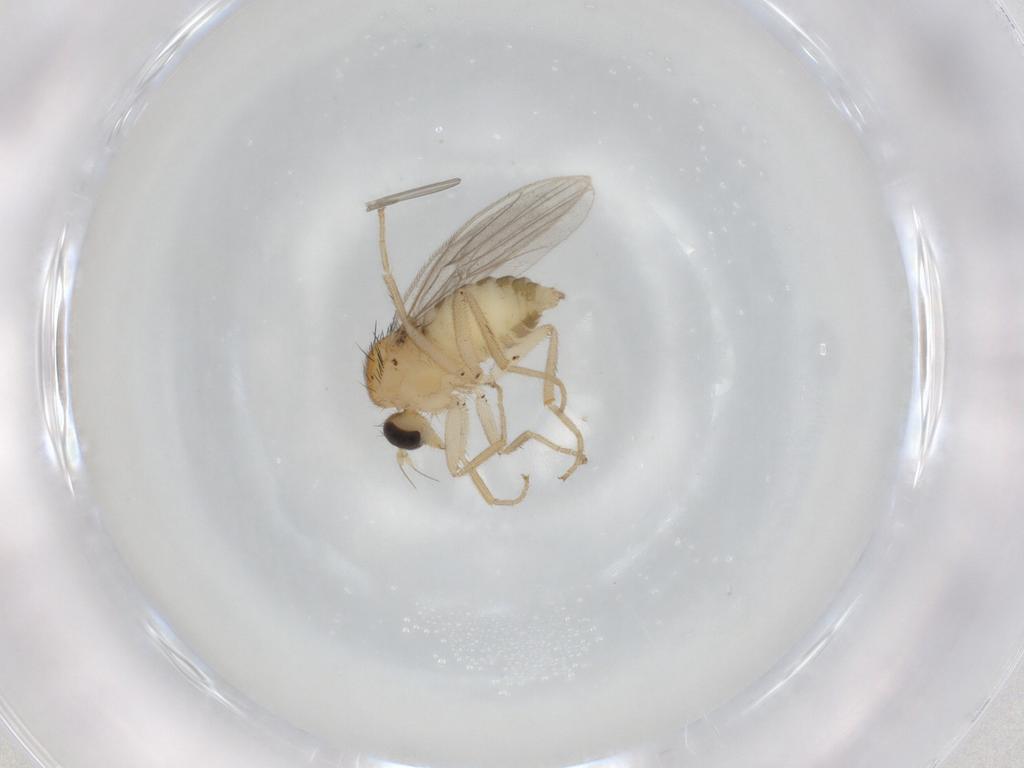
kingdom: Animalia
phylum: Arthropoda
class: Insecta
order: Diptera
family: Hybotidae
